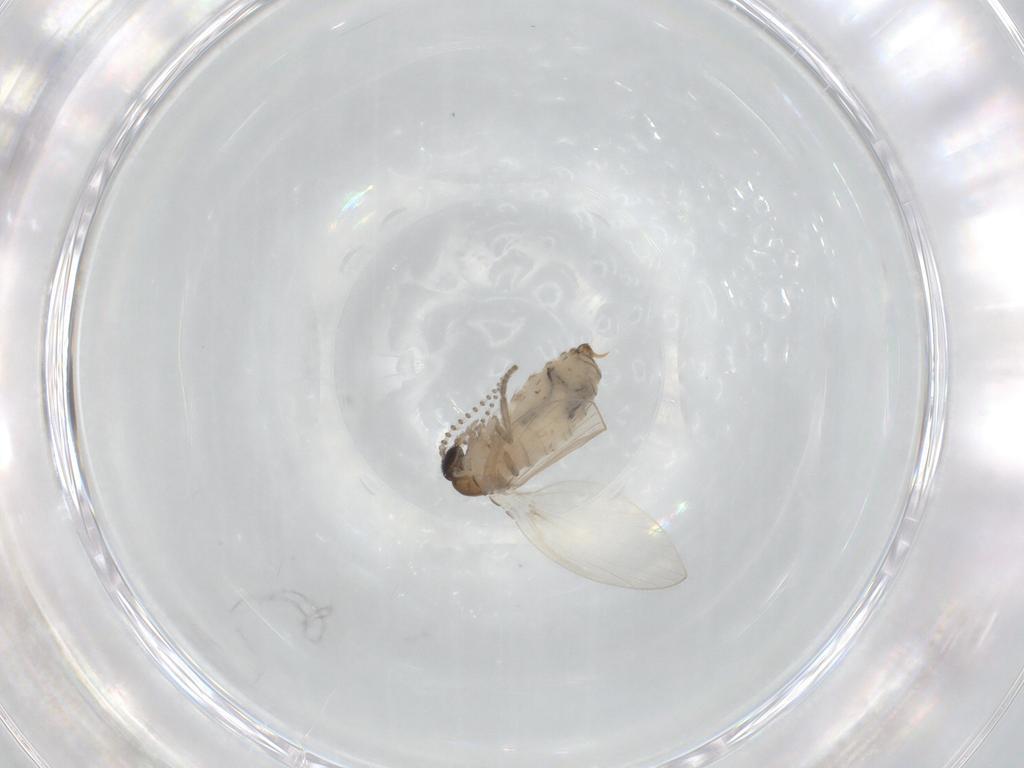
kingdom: Animalia
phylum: Arthropoda
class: Insecta
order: Diptera
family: Psychodidae
